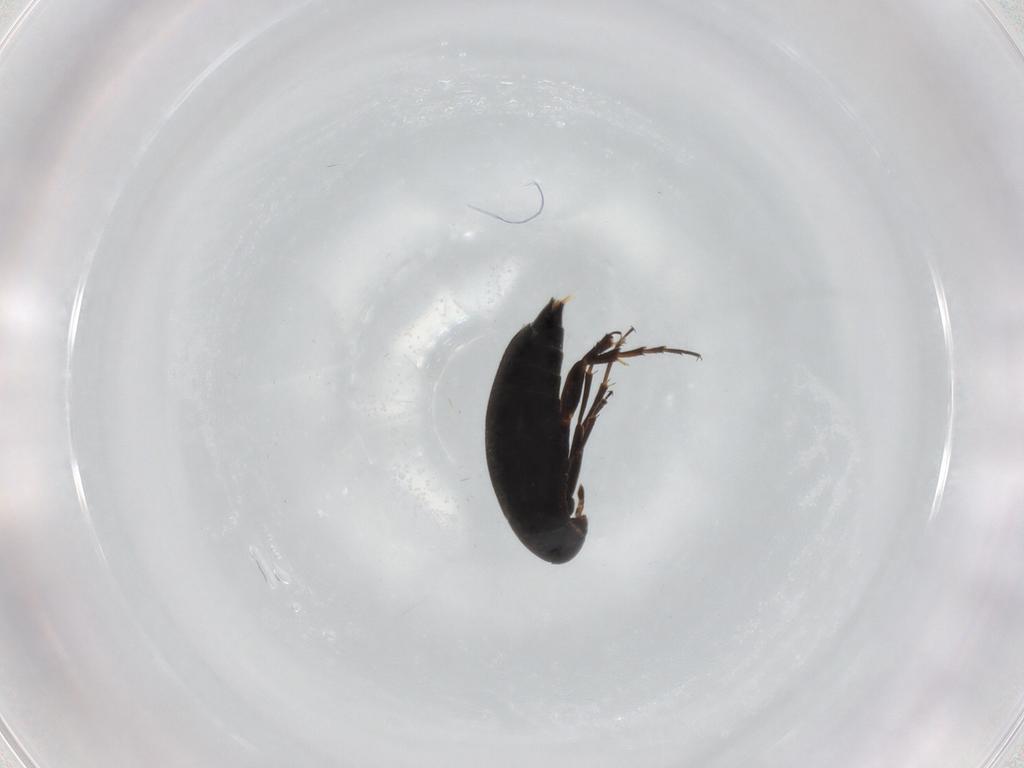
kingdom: Animalia
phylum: Arthropoda
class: Insecta
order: Coleoptera
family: Scraptiidae
